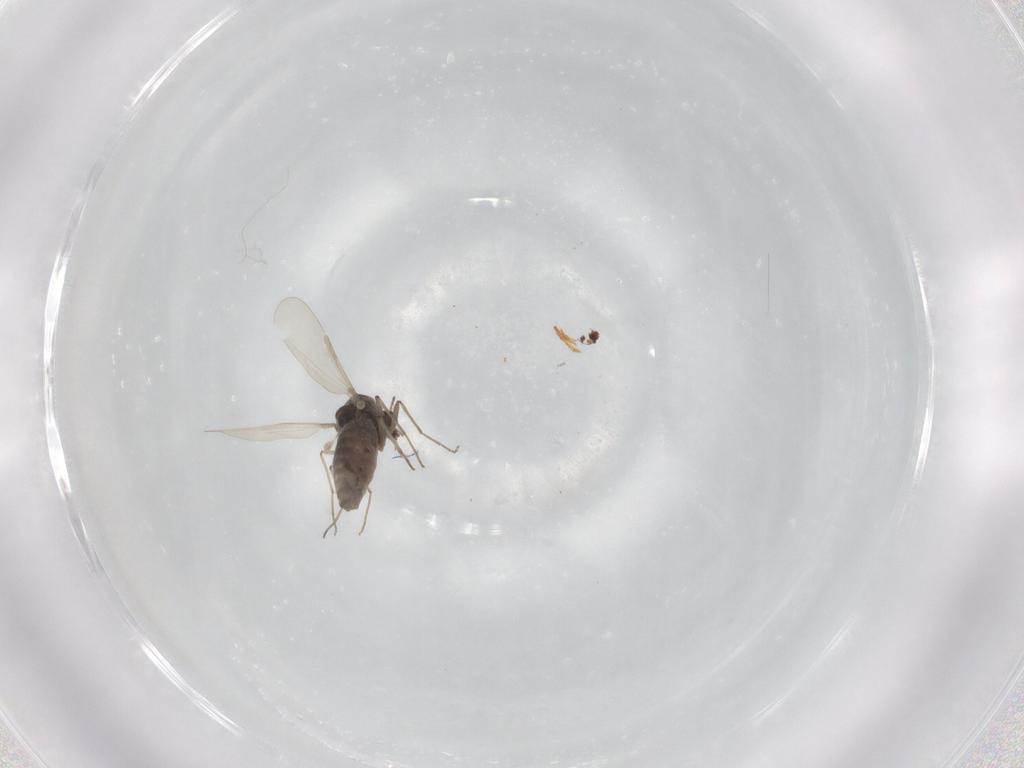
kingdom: Animalia
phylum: Arthropoda
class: Insecta
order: Diptera
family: Chironomidae
